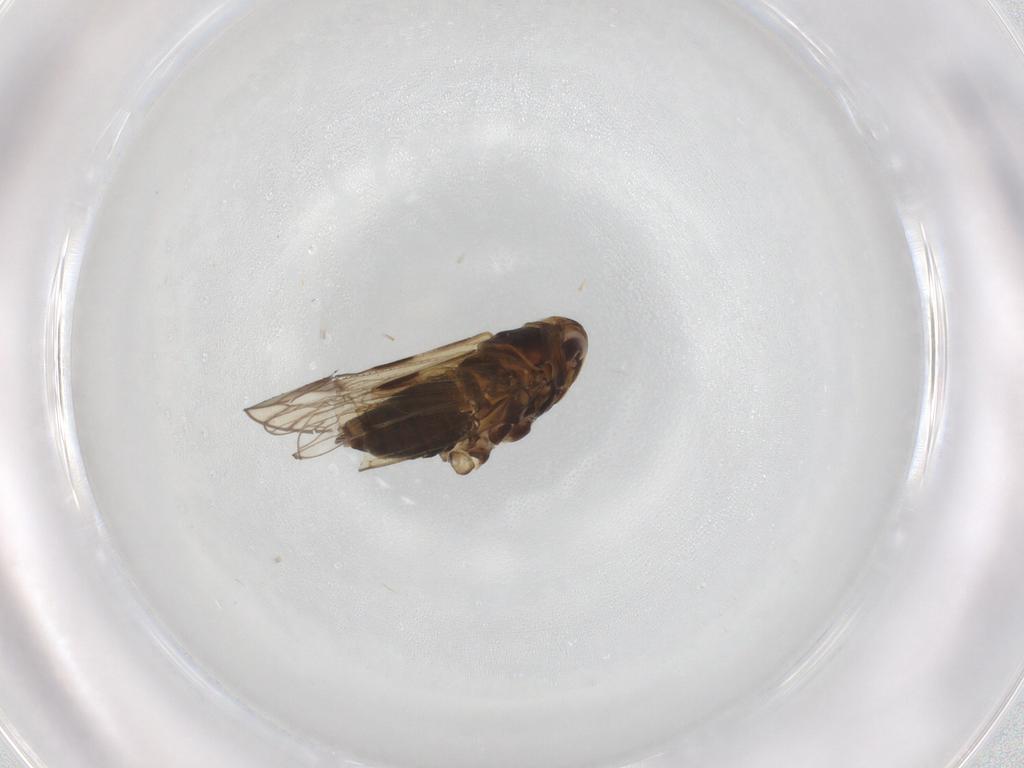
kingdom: Animalia
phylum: Arthropoda
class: Insecta
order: Hemiptera
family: Delphacidae
